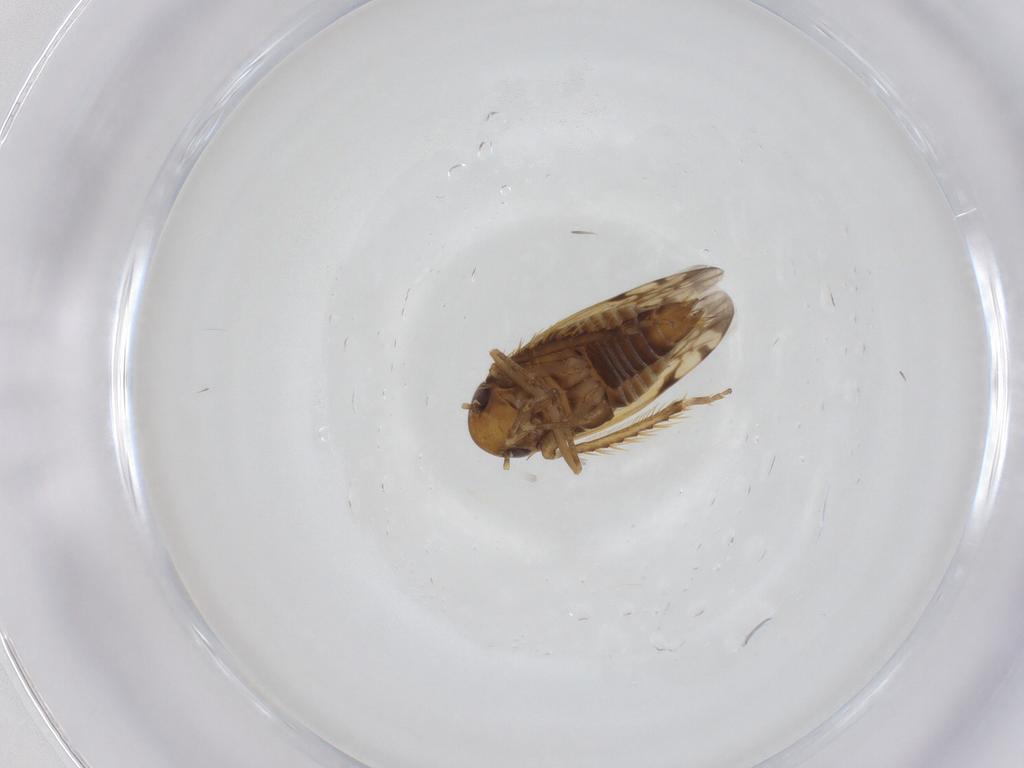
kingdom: Animalia
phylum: Arthropoda
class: Insecta
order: Hemiptera
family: Cicadellidae
